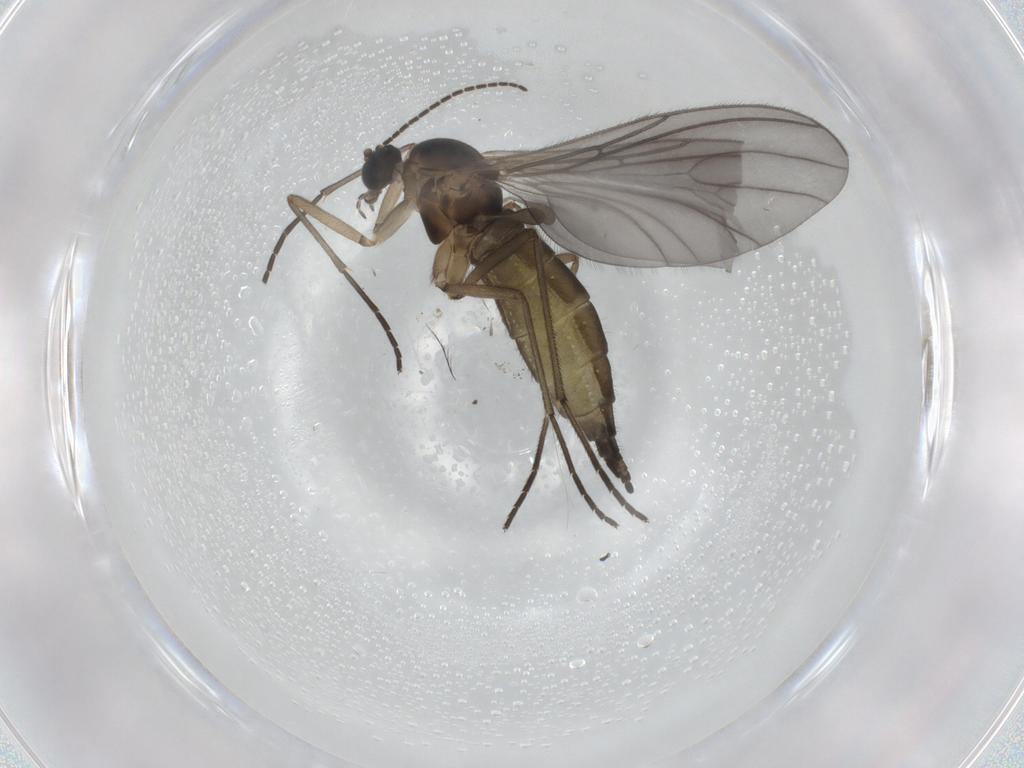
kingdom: Animalia
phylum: Arthropoda
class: Insecta
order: Diptera
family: Sciaridae
